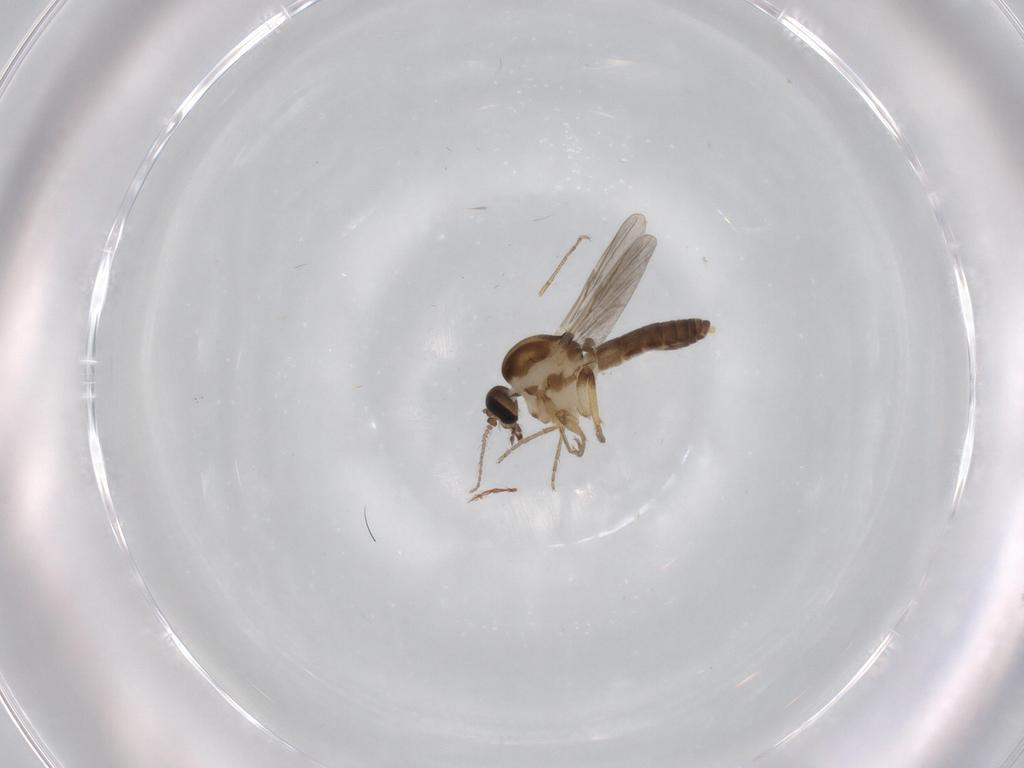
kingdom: Animalia
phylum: Arthropoda
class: Insecta
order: Diptera
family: Ceratopogonidae
